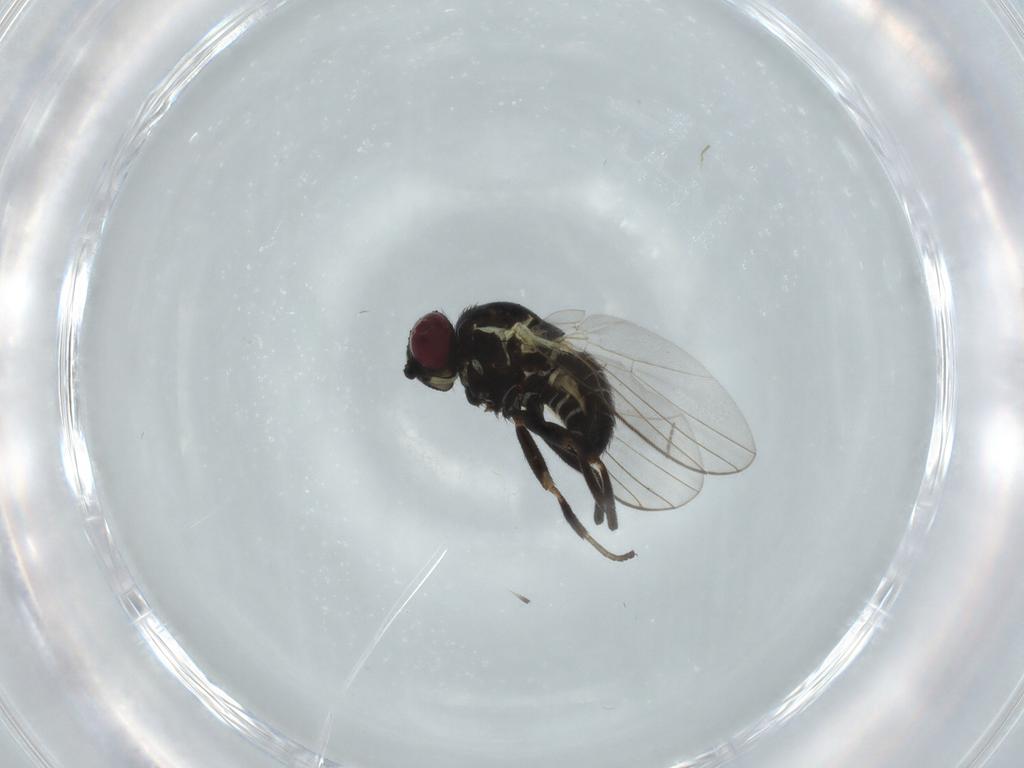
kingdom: Animalia
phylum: Arthropoda
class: Insecta
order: Diptera
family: Agromyzidae
